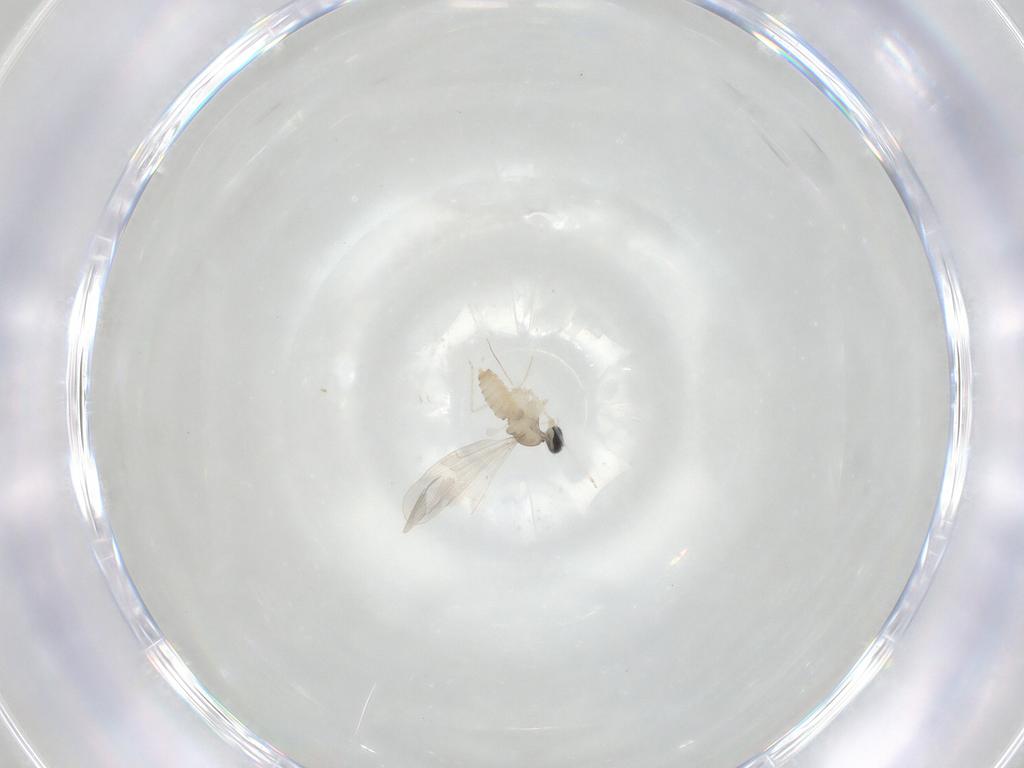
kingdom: Animalia
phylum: Arthropoda
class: Insecta
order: Diptera
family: Cecidomyiidae
